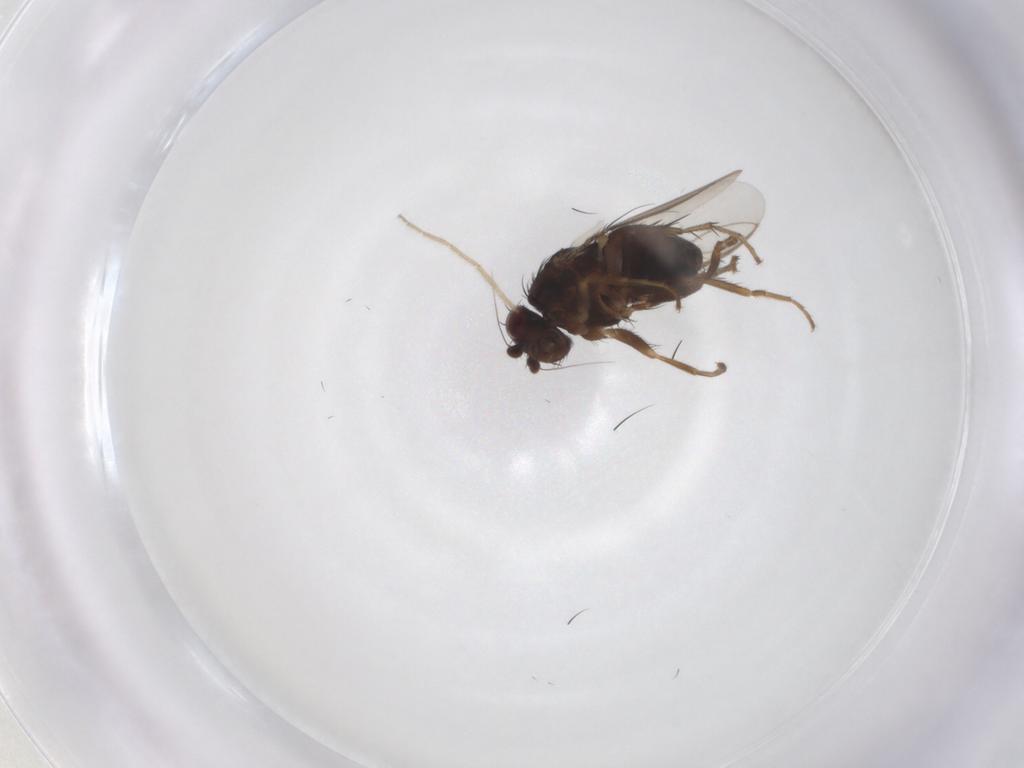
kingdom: Animalia
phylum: Arthropoda
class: Insecta
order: Diptera
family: Sphaeroceridae
